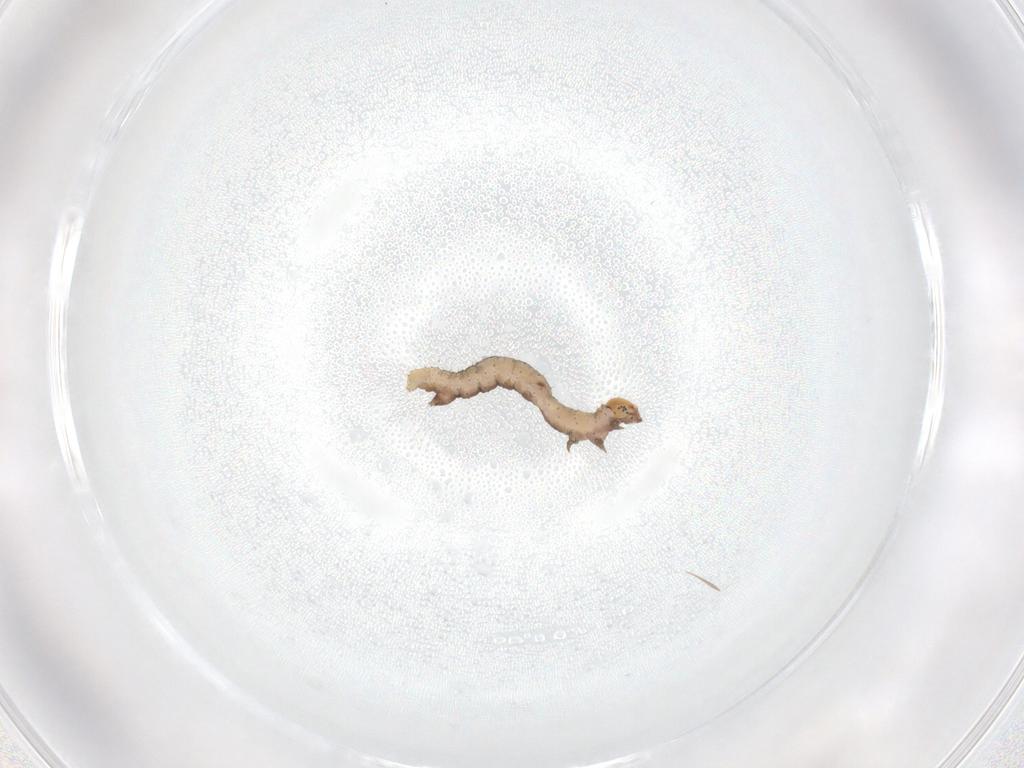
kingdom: Animalia
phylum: Arthropoda
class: Insecta
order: Lepidoptera
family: Geometridae
